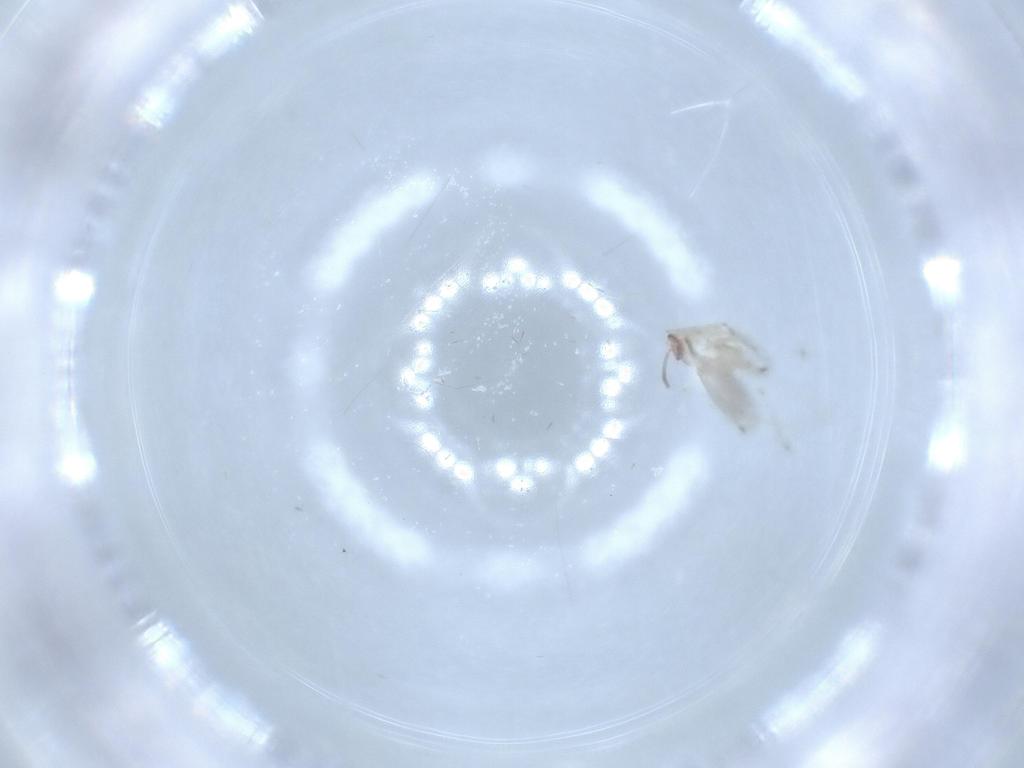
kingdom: Animalia
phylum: Arthropoda
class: Insecta
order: Diptera
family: Cecidomyiidae
